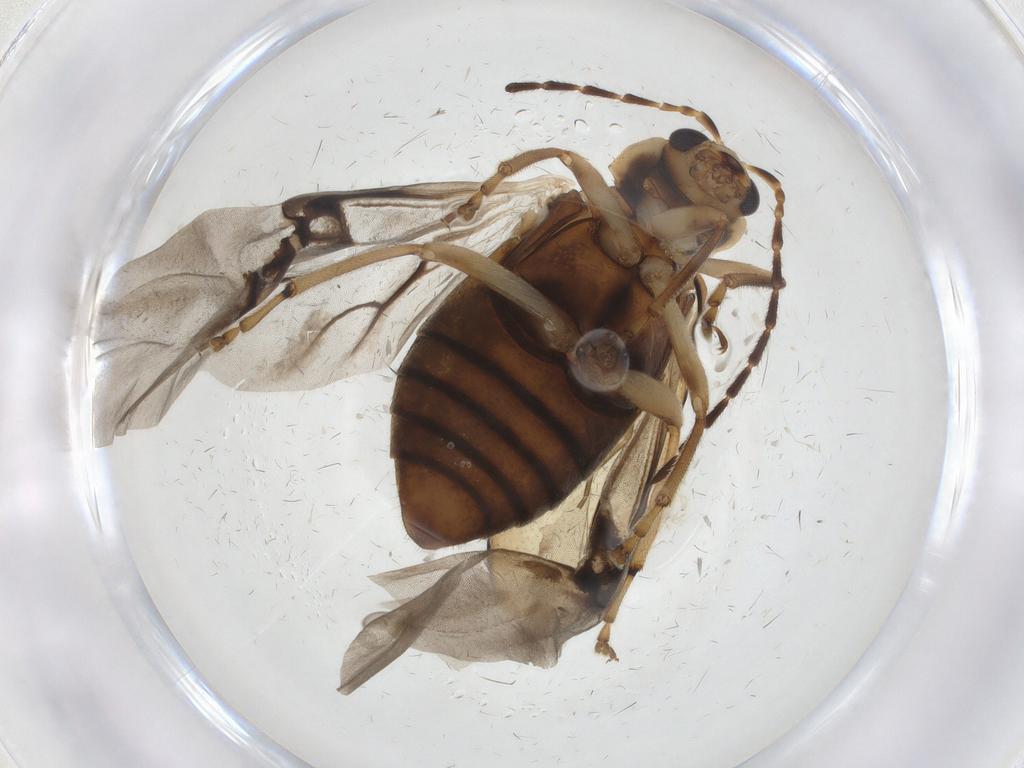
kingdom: Animalia
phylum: Arthropoda
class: Insecta
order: Coleoptera
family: Chrysomelidae
